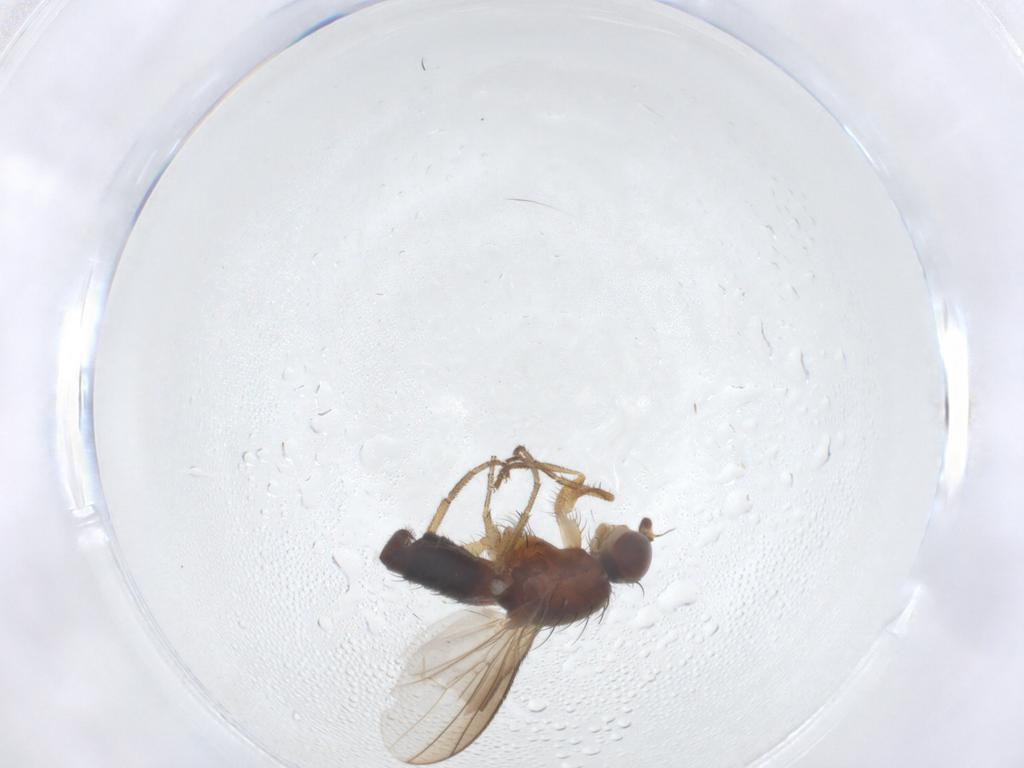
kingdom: Animalia
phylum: Arthropoda
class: Insecta
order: Diptera
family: Heleomyzidae
